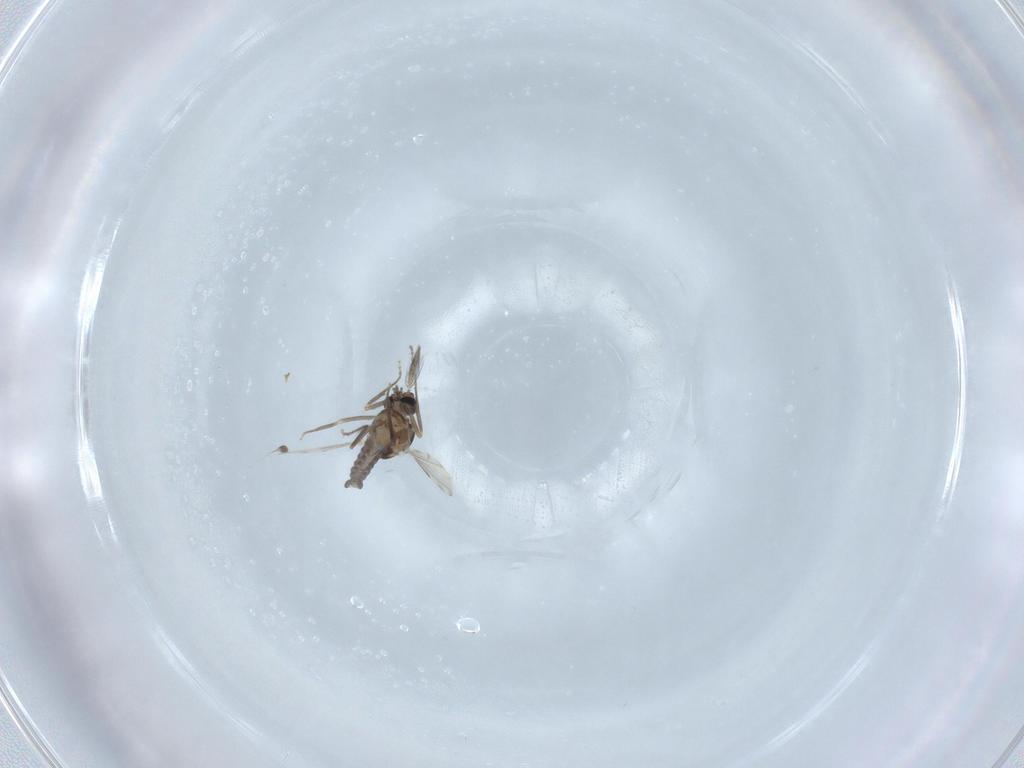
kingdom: Animalia
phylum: Arthropoda
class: Insecta
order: Diptera
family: Ceratopogonidae
